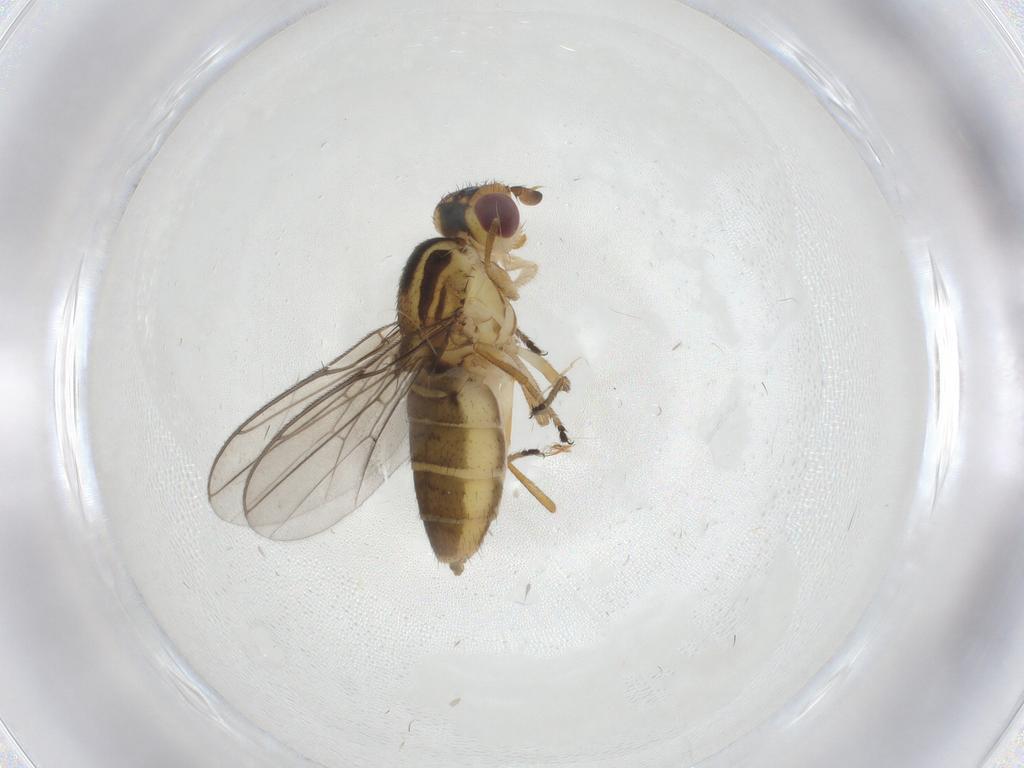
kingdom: Animalia
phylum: Arthropoda
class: Insecta
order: Diptera
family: Chloropidae
